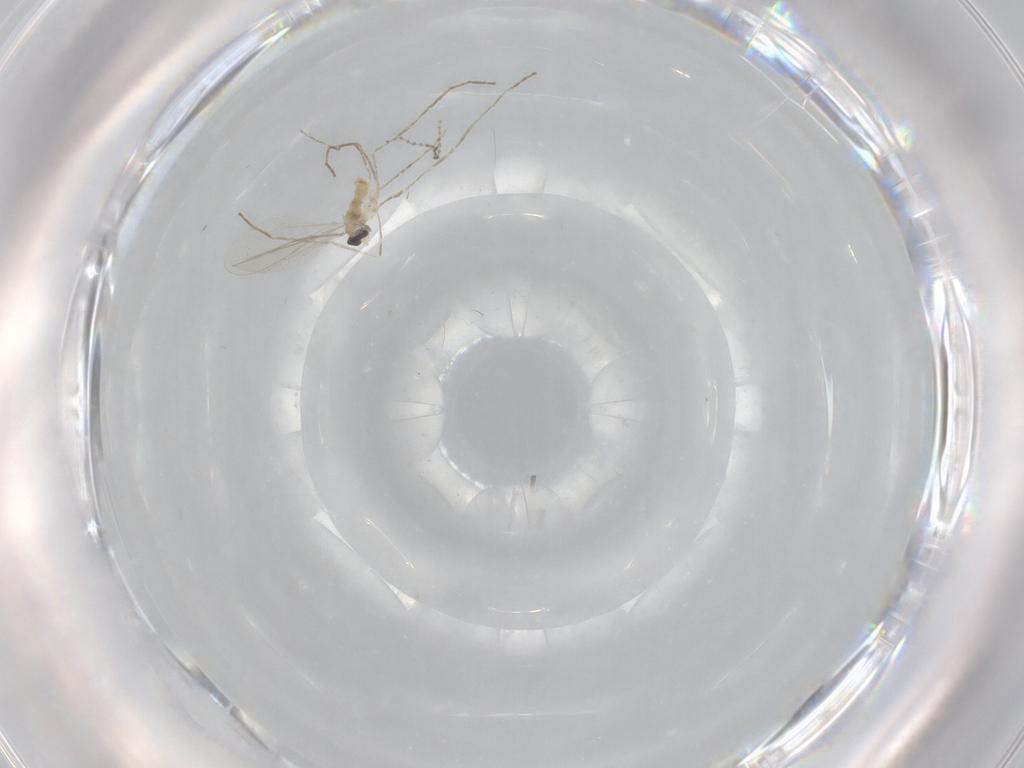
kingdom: Animalia
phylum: Arthropoda
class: Insecta
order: Diptera
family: Cecidomyiidae
